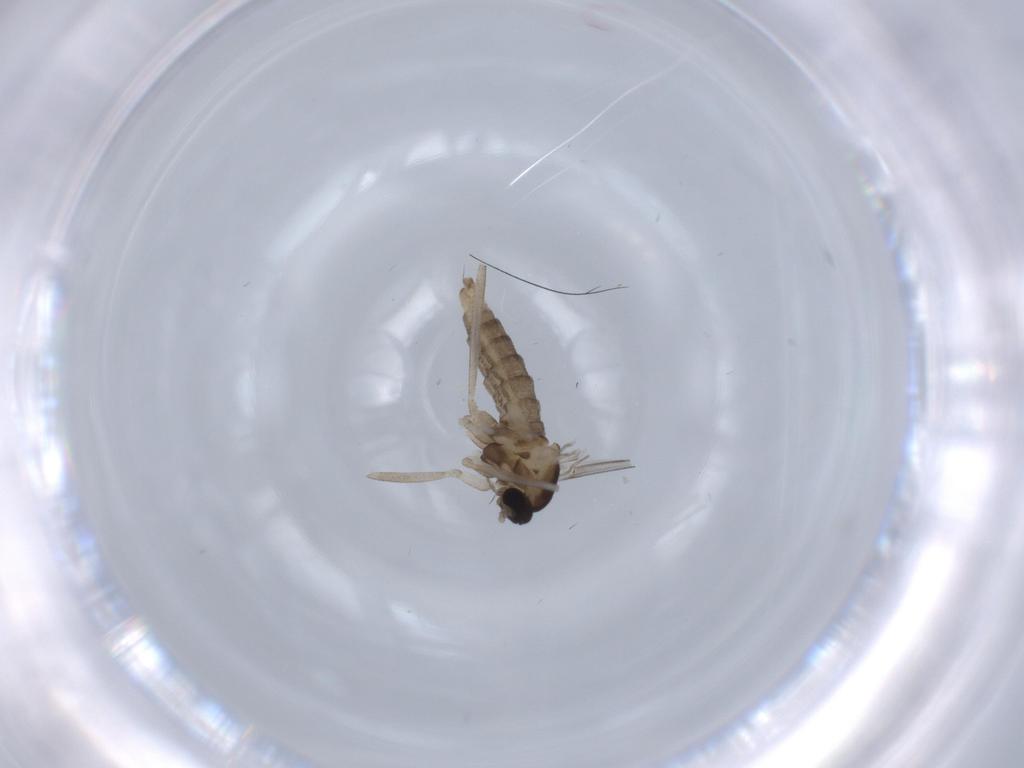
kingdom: Animalia
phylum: Arthropoda
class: Insecta
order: Diptera
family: Cecidomyiidae
